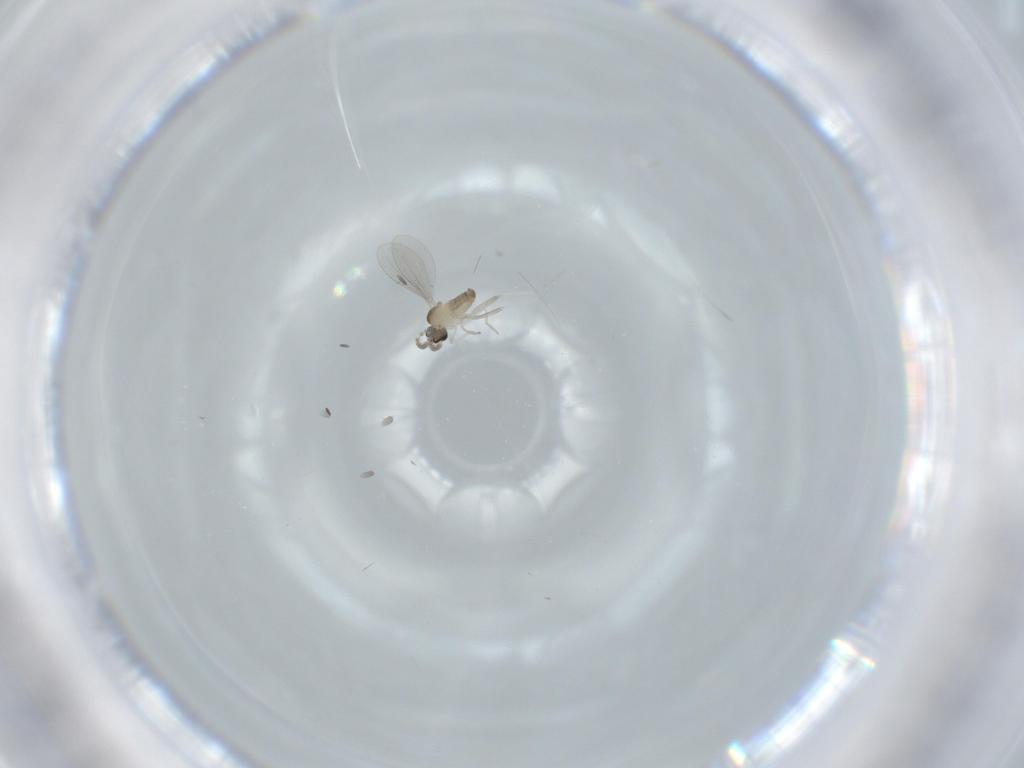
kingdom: Animalia
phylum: Arthropoda
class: Insecta
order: Diptera
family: Cecidomyiidae
